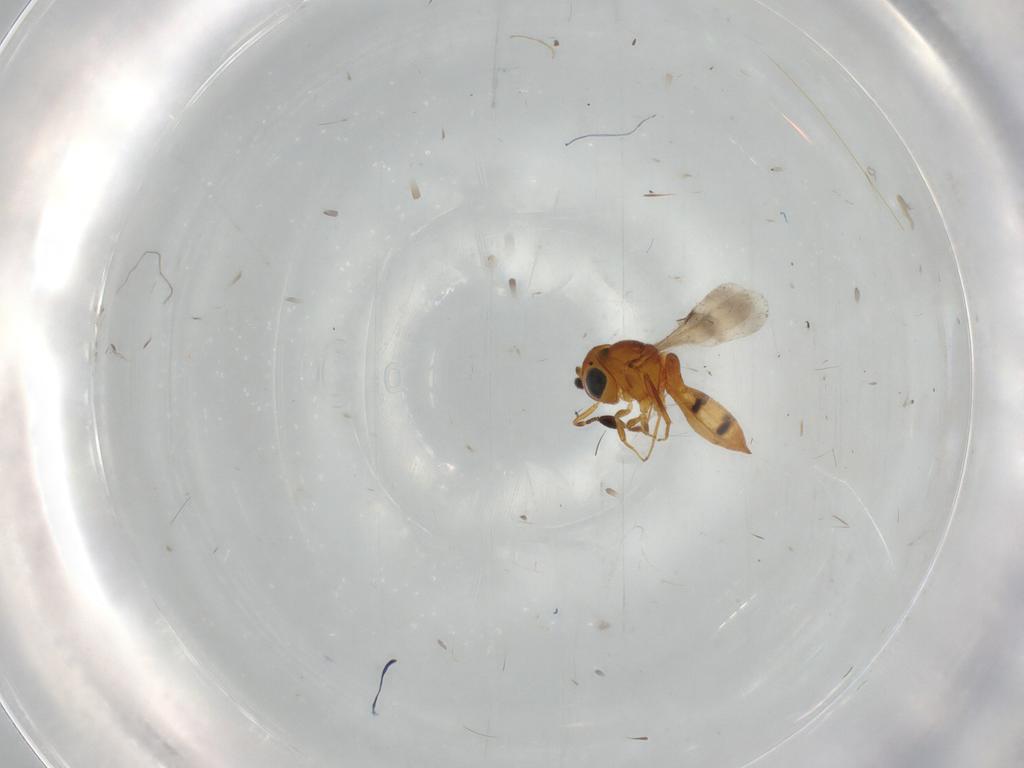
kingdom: Animalia
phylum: Arthropoda
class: Insecta
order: Hymenoptera
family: Scelionidae
